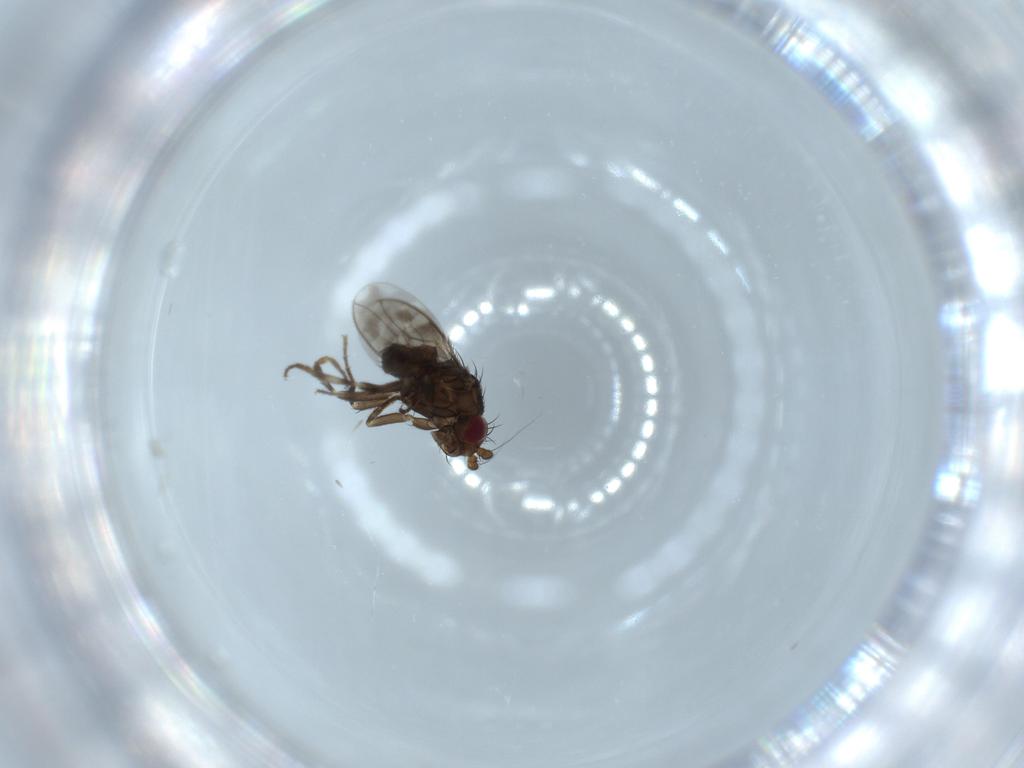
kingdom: Animalia
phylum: Arthropoda
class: Insecta
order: Diptera
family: Sphaeroceridae
